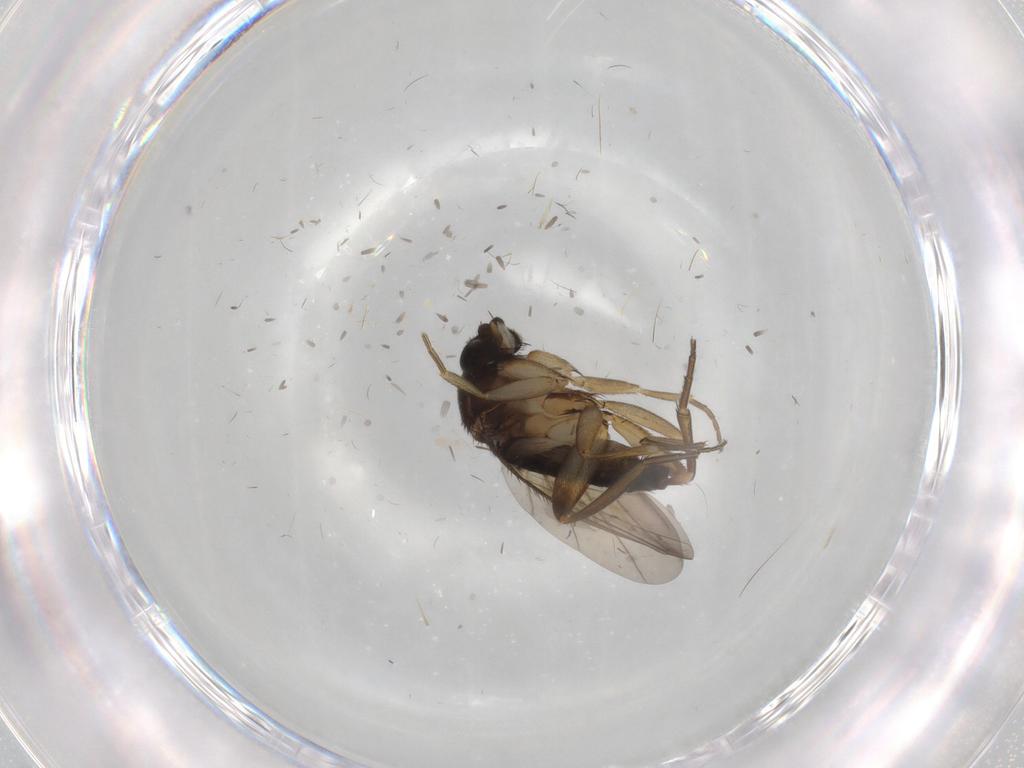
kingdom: Animalia
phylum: Arthropoda
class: Insecta
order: Diptera
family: Phoridae
